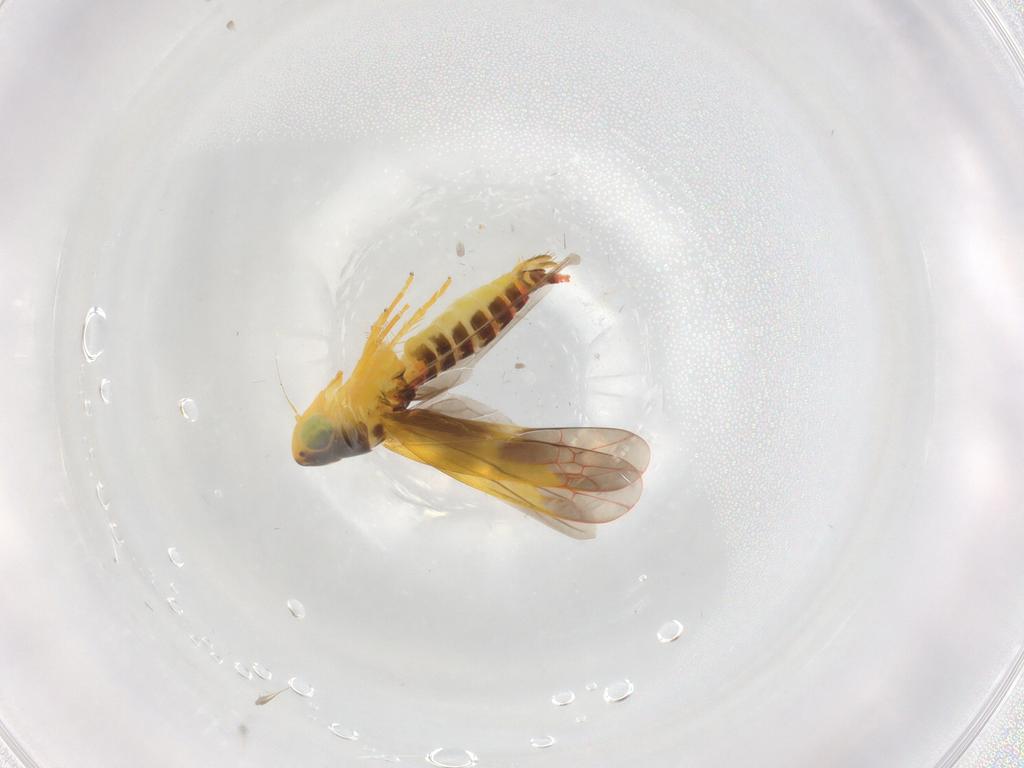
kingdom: Animalia
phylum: Arthropoda
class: Insecta
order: Hemiptera
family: Cicadellidae
